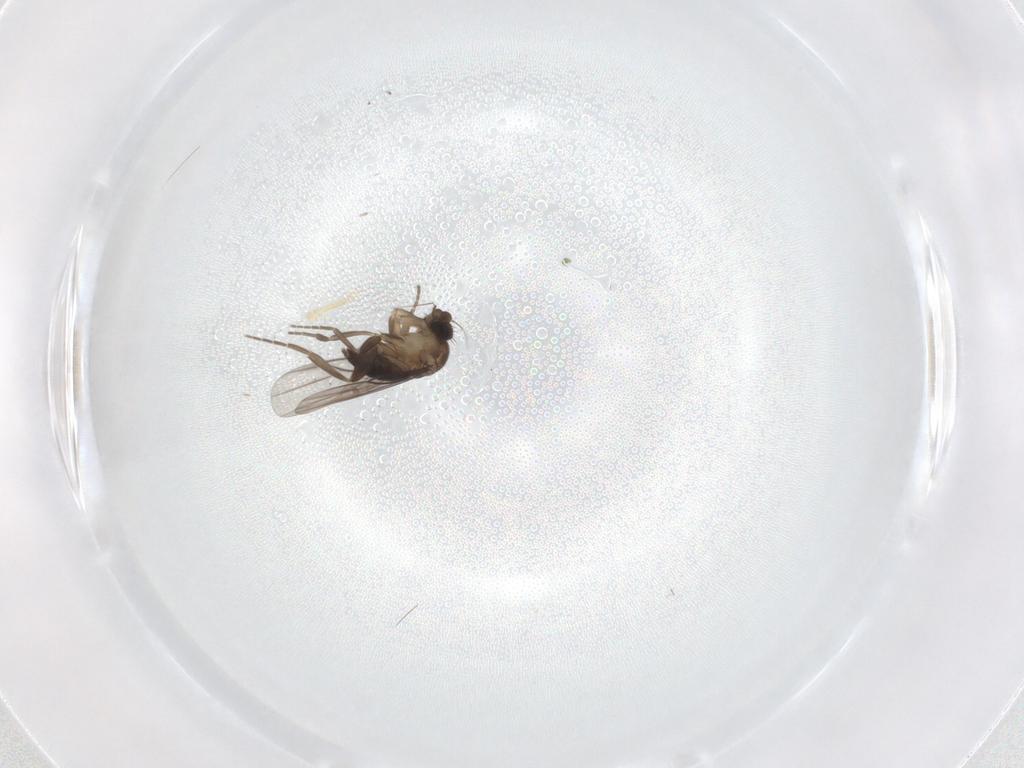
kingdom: Animalia
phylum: Arthropoda
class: Insecta
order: Diptera
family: Phoridae
